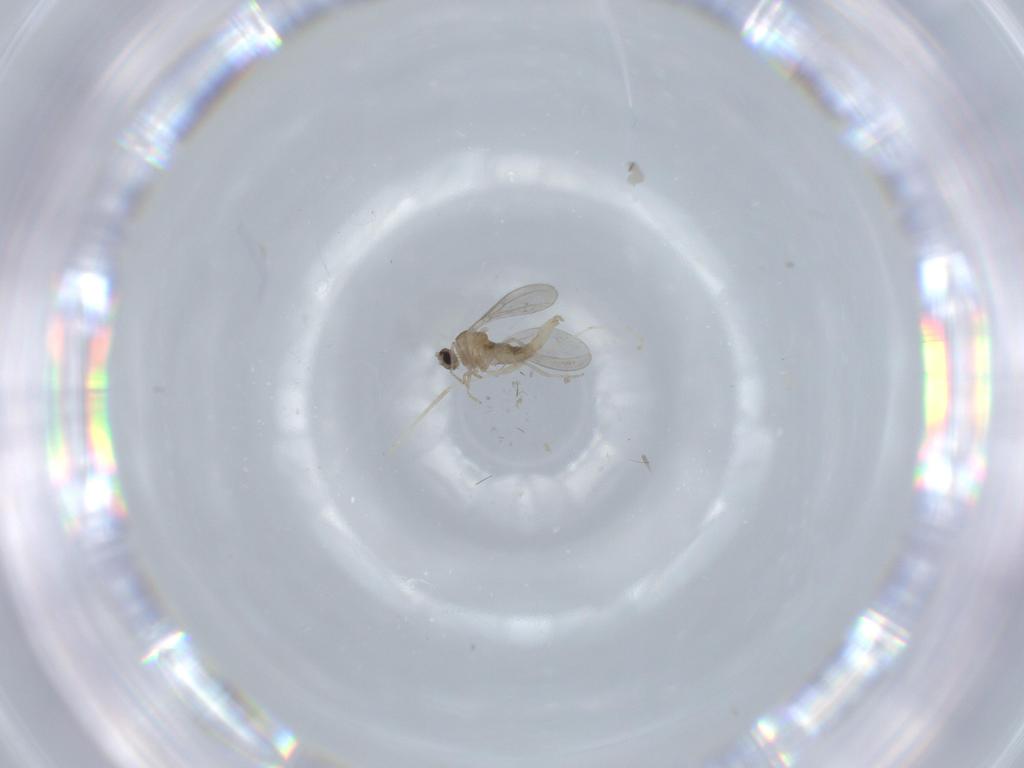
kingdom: Animalia
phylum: Arthropoda
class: Insecta
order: Diptera
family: Cecidomyiidae
